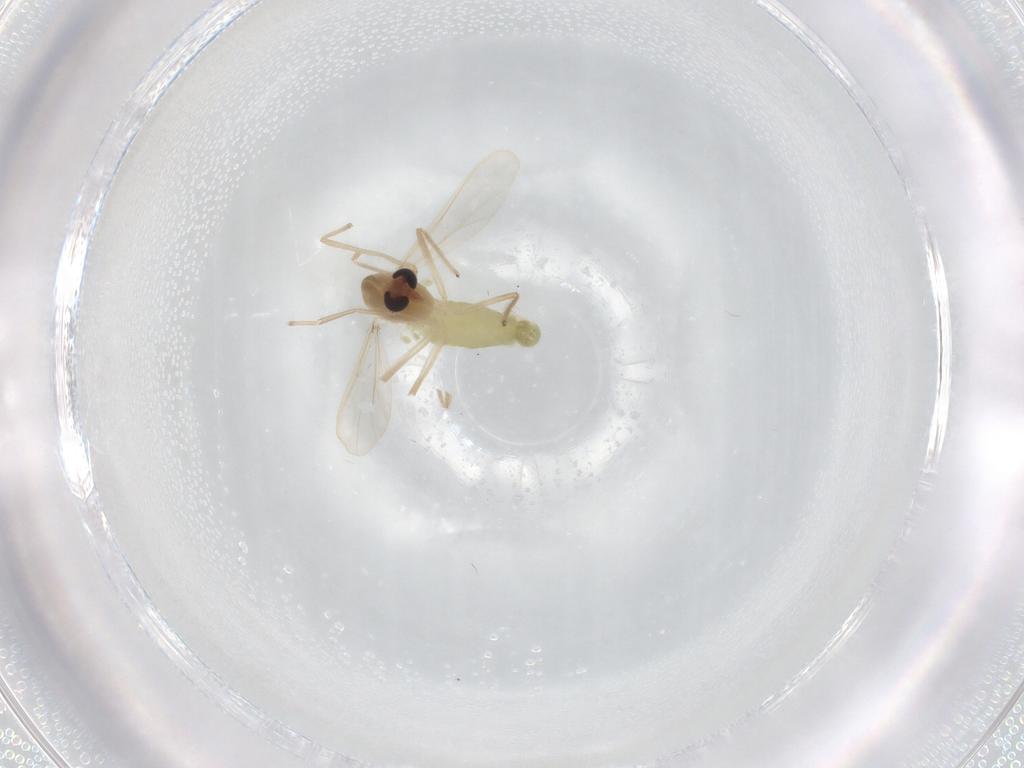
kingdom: Animalia
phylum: Arthropoda
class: Insecta
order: Diptera
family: Chironomidae
